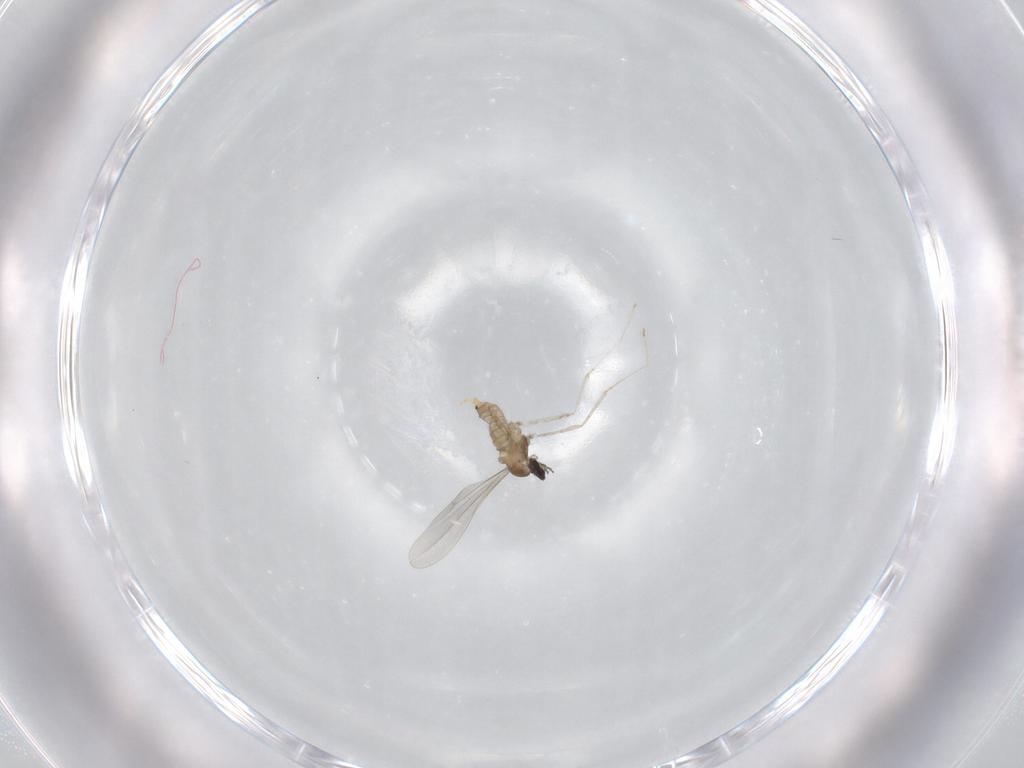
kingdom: Animalia
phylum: Arthropoda
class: Insecta
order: Diptera
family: Cecidomyiidae
